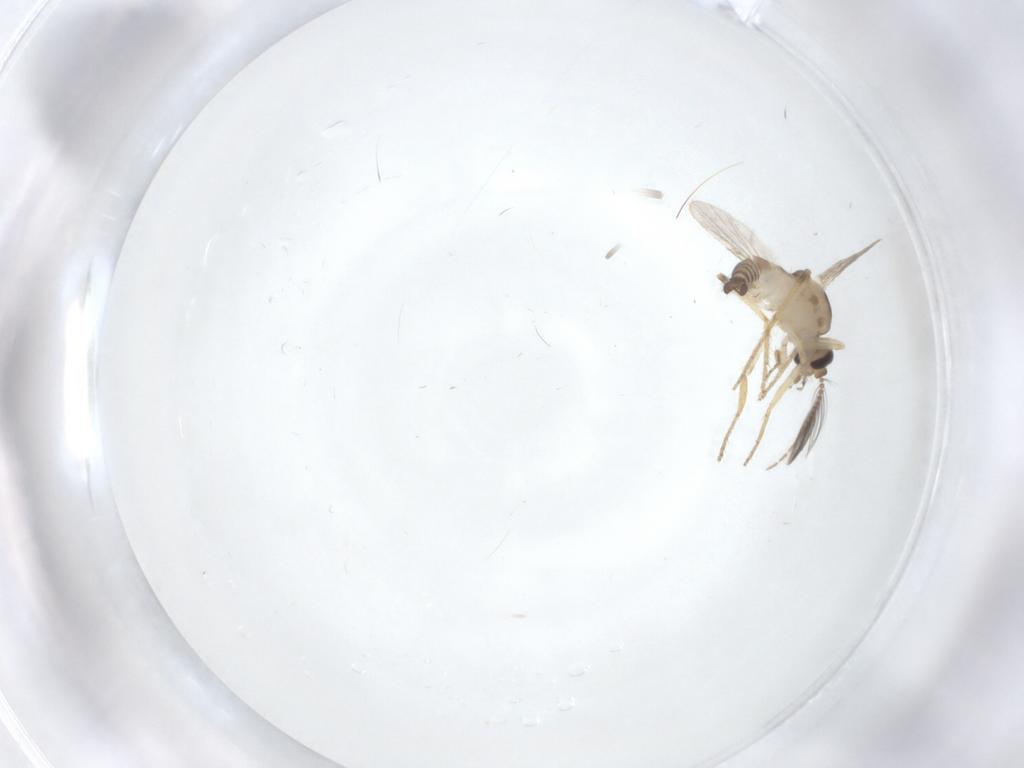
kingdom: Animalia
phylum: Arthropoda
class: Insecta
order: Diptera
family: Ceratopogonidae
